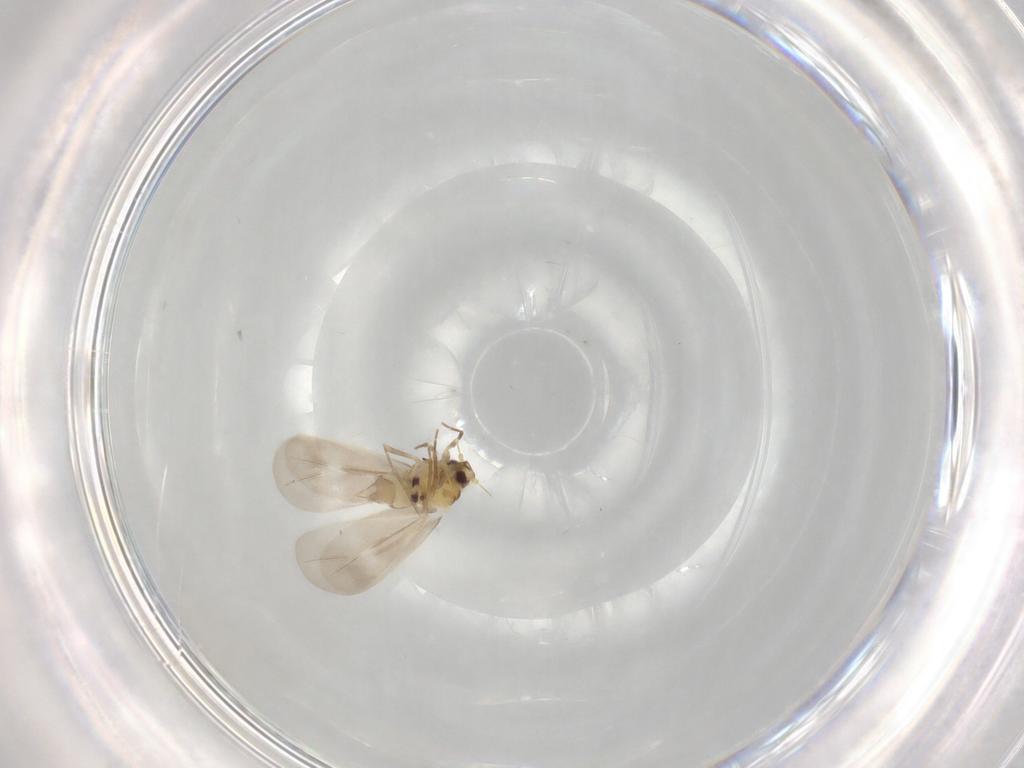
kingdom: Animalia
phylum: Arthropoda
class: Insecta
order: Hemiptera
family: Aleyrodidae
